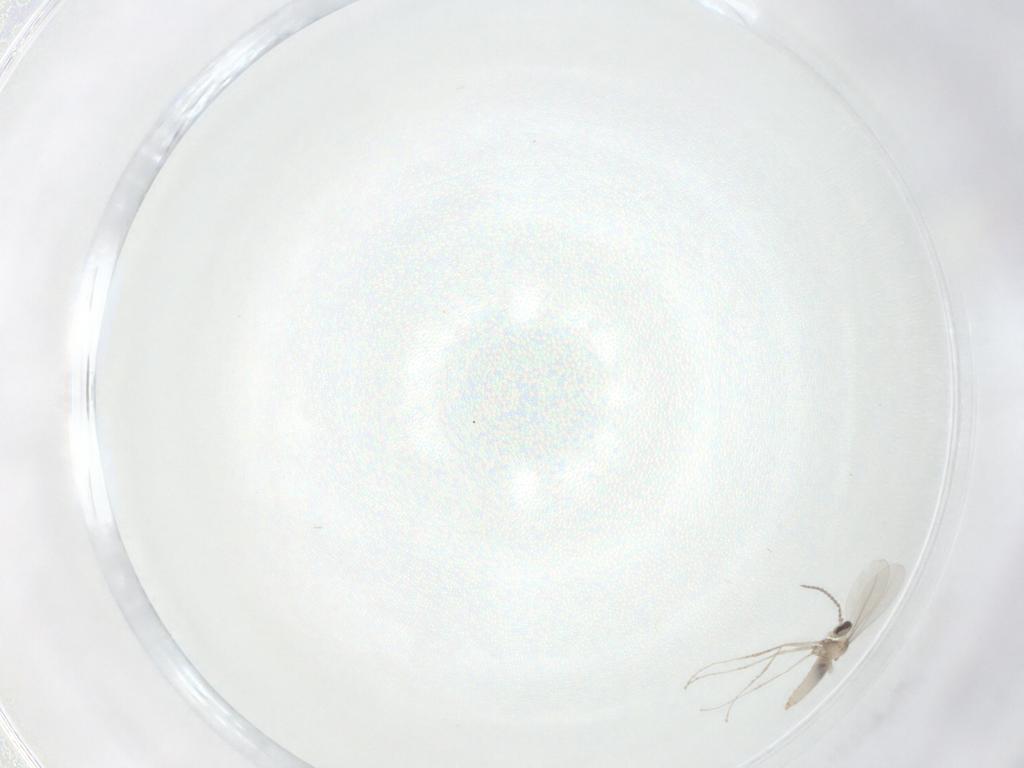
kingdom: Animalia
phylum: Arthropoda
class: Insecta
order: Diptera
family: Cecidomyiidae
